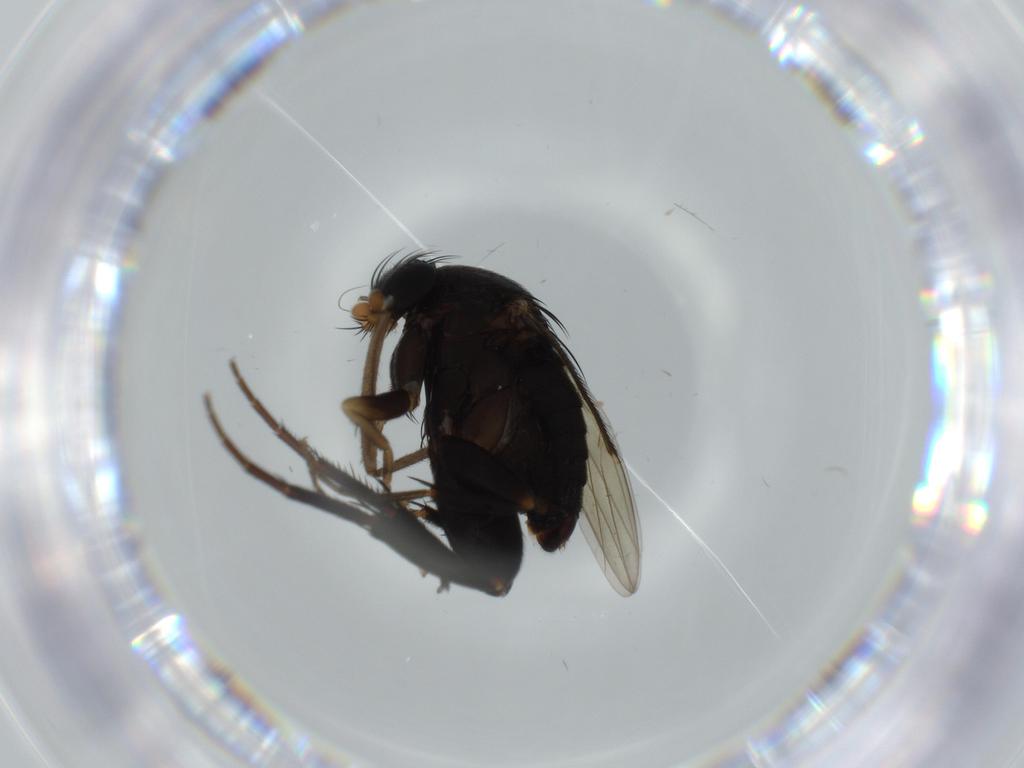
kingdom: Animalia
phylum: Arthropoda
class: Insecta
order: Diptera
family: Phoridae
